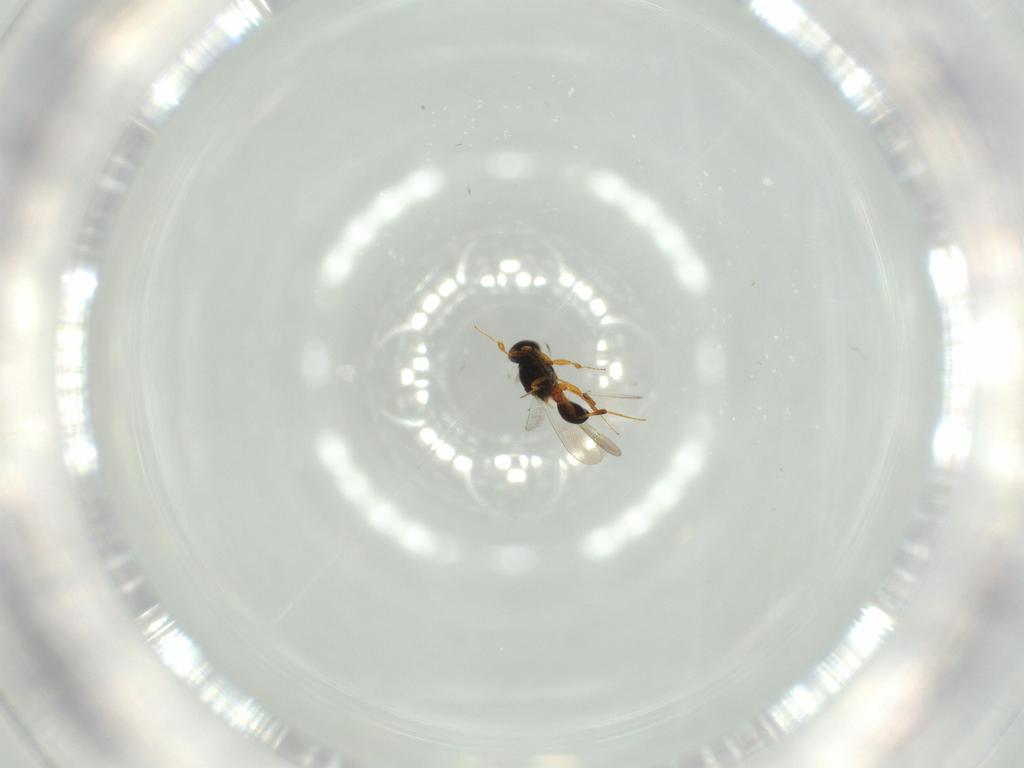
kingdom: Animalia
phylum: Arthropoda
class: Insecta
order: Hymenoptera
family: Platygastridae
